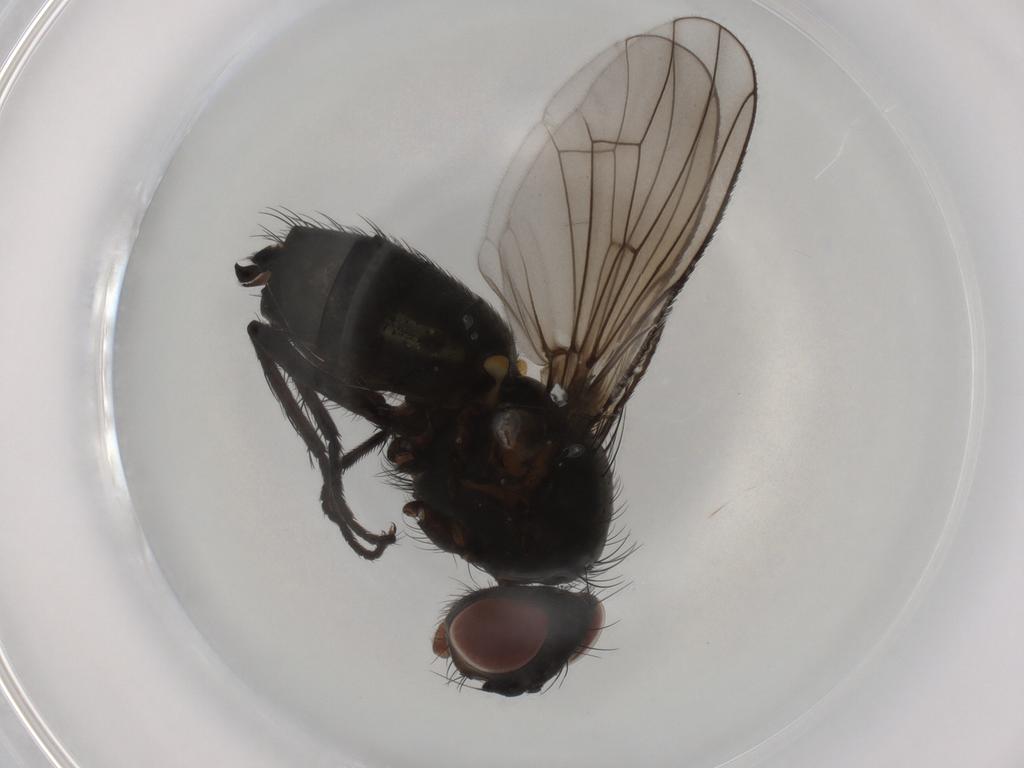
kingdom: Animalia
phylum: Arthropoda
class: Insecta
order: Diptera
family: Anthomyiidae
